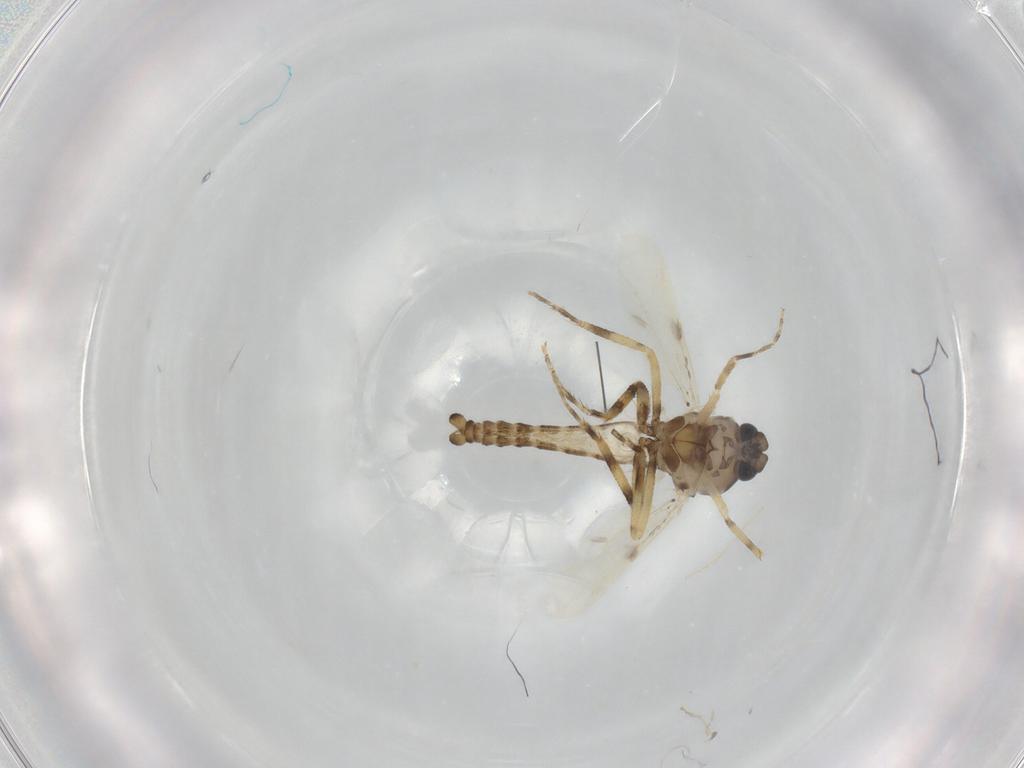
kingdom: Animalia
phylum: Arthropoda
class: Insecta
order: Diptera
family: Ceratopogonidae
